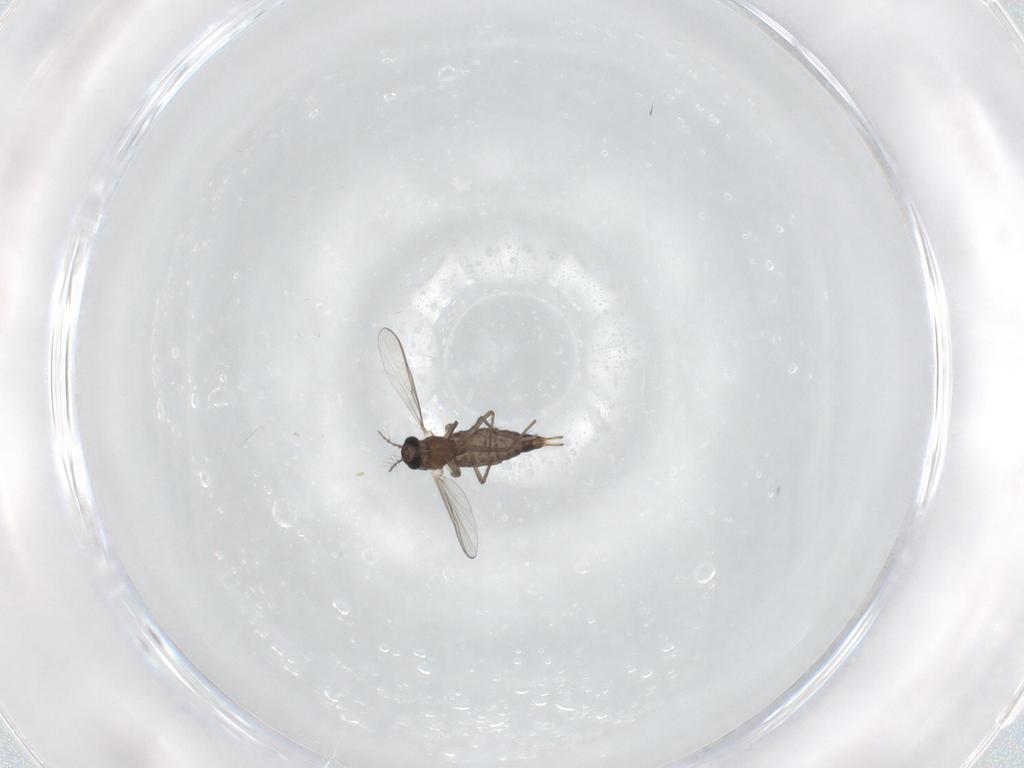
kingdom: Animalia
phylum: Arthropoda
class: Insecta
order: Diptera
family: Chironomidae
